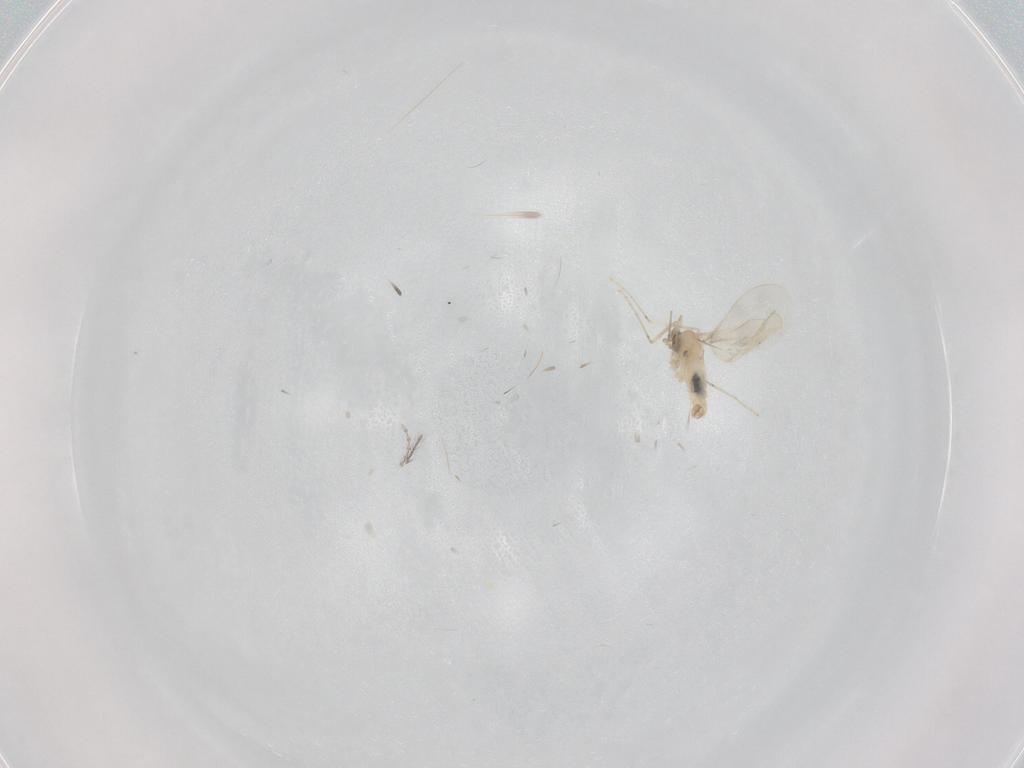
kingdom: Animalia
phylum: Arthropoda
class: Insecta
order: Diptera
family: Cecidomyiidae
